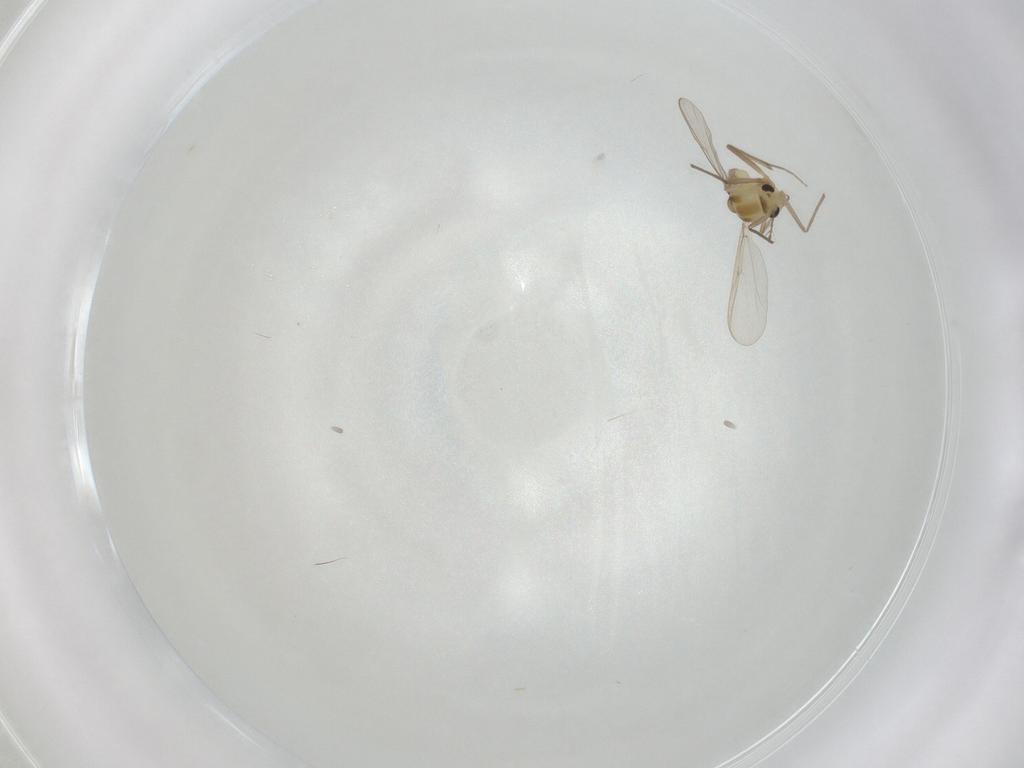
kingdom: Animalia
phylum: Arthropoda
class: Insecta
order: Diptera
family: Chironomidae
